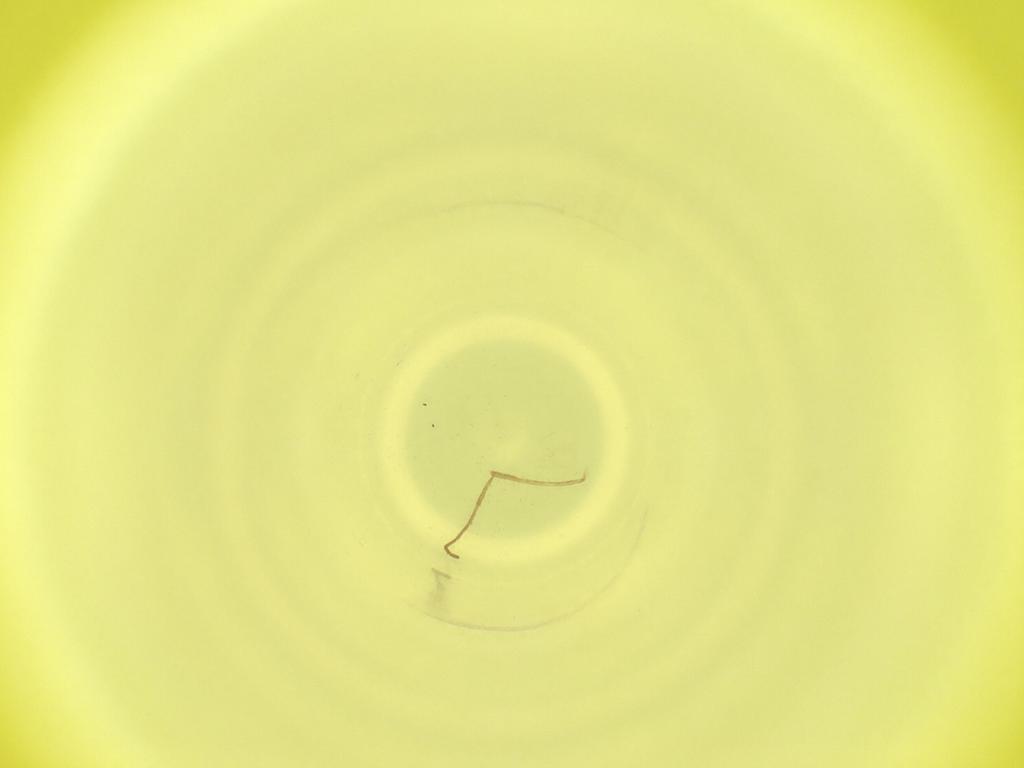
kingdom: Animalia
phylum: Arthropoda
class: Insecta
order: Diptera
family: Cecidomyiidae
